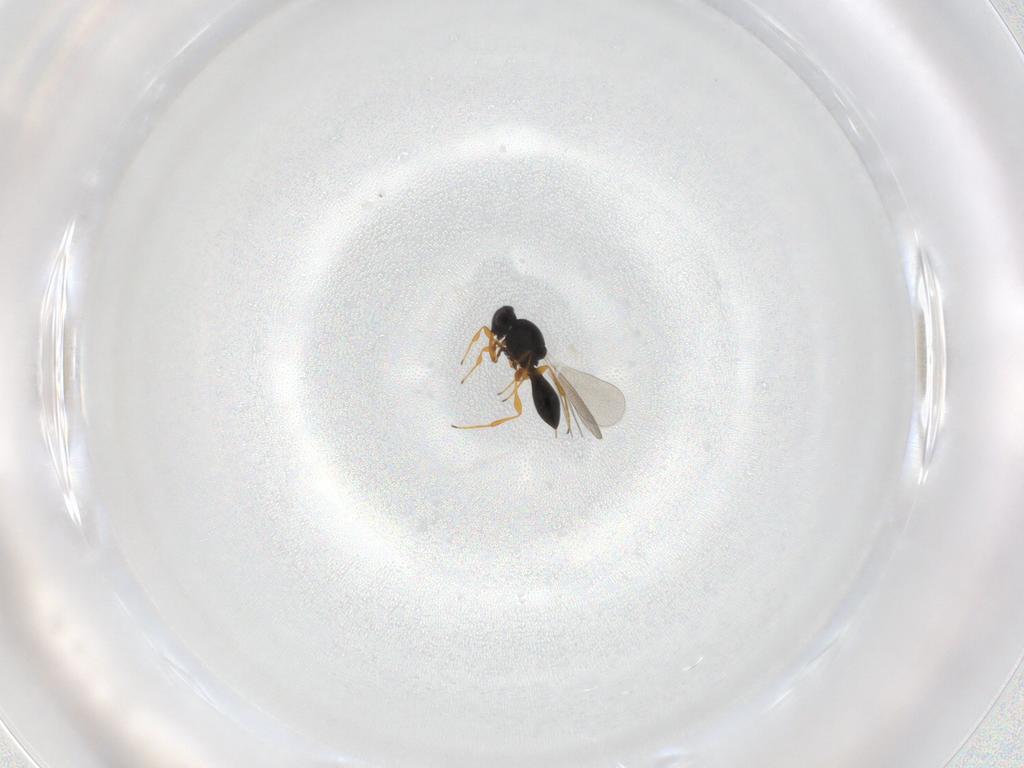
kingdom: Animalia
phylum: Arthropoda
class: Insecta
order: Hymenoptera
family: Platygastridae
